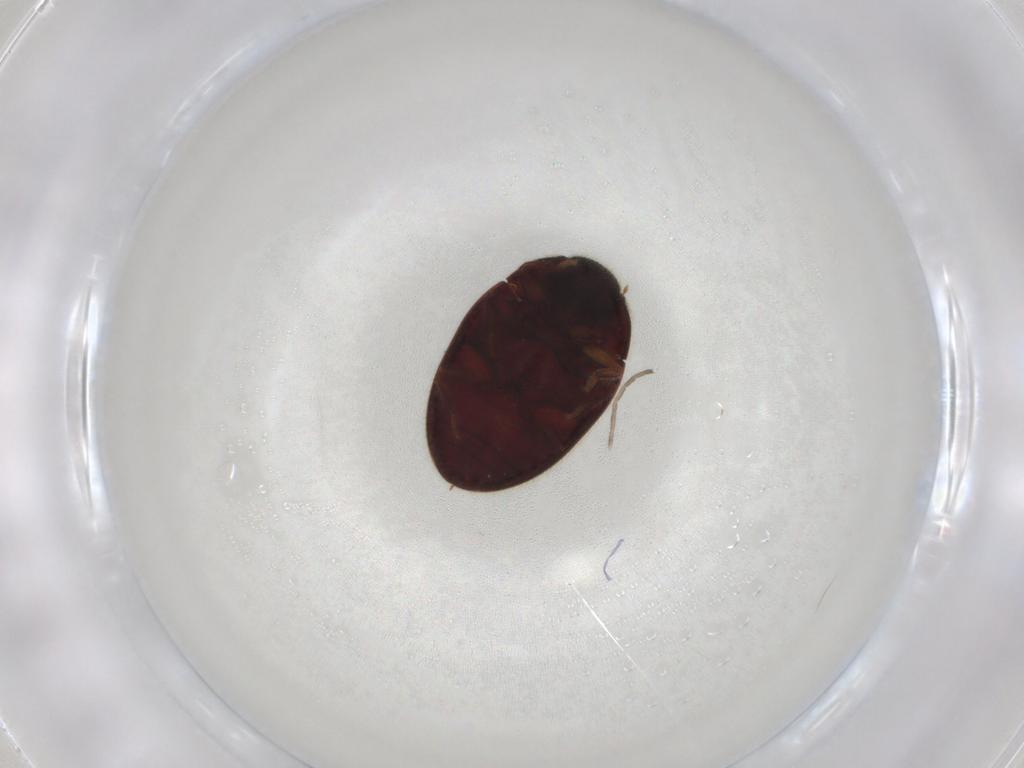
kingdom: Animalia
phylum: Arthropoda
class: Insecta
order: Coleoptera
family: Limnichidae
